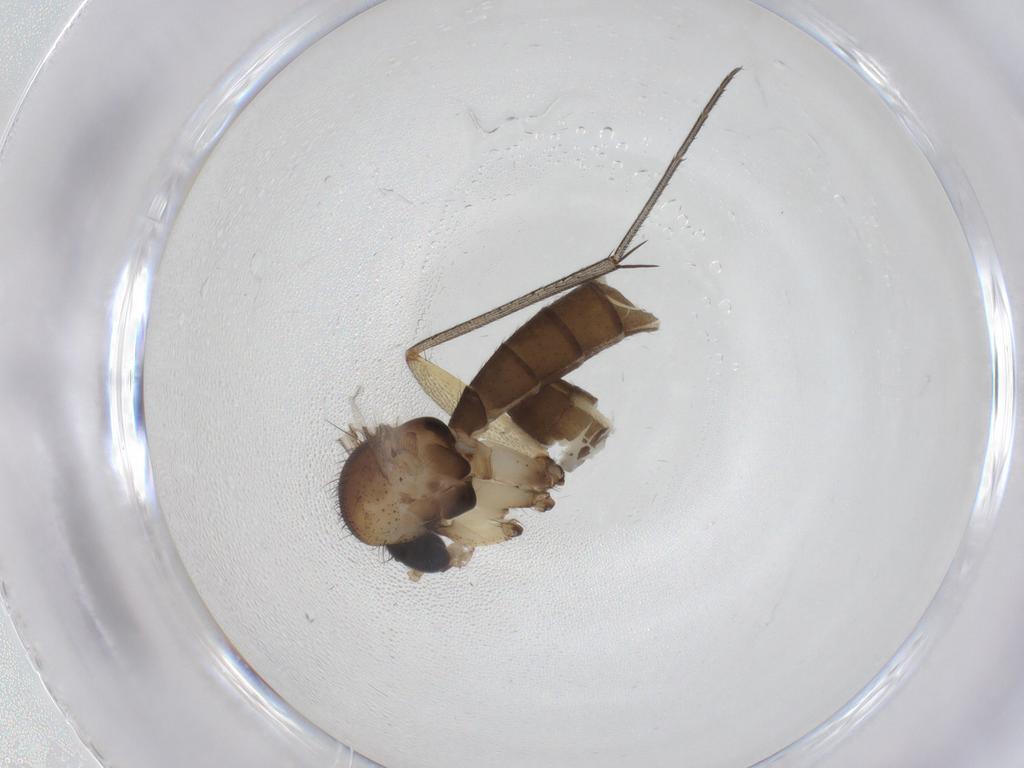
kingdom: Animalia
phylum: Arthropoda
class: Insecta
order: Diptera
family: Mycetophilidae
